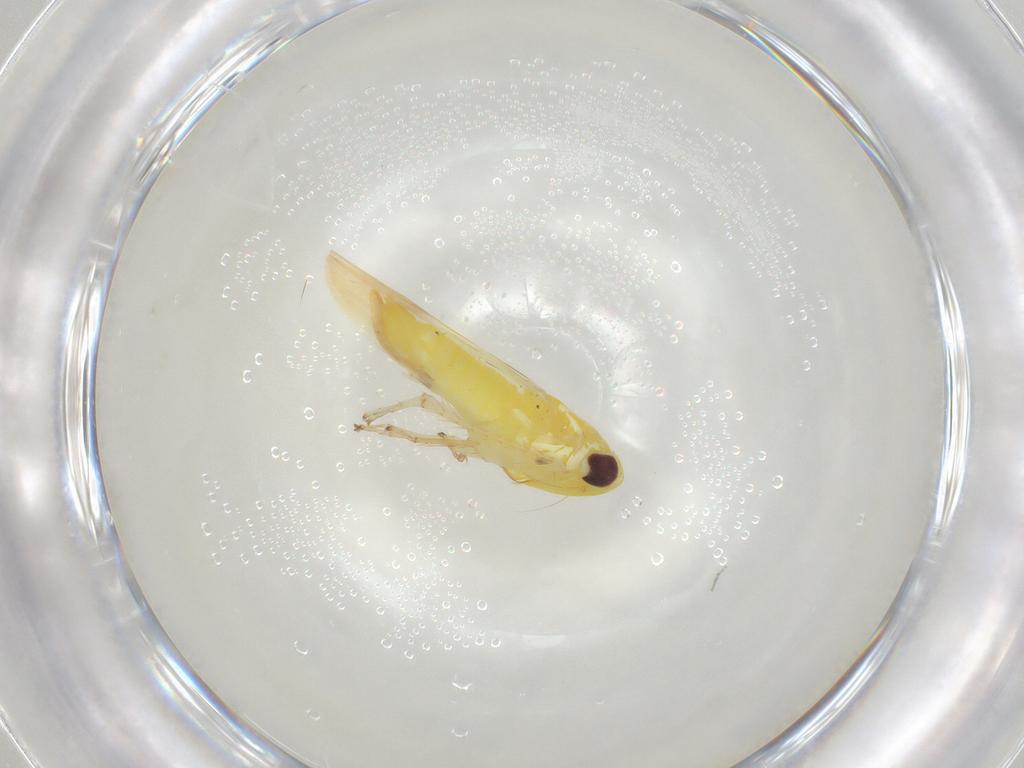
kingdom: Animalia
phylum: Arthropoda
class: Insecta
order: Hemiptera
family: Cicadellidae
